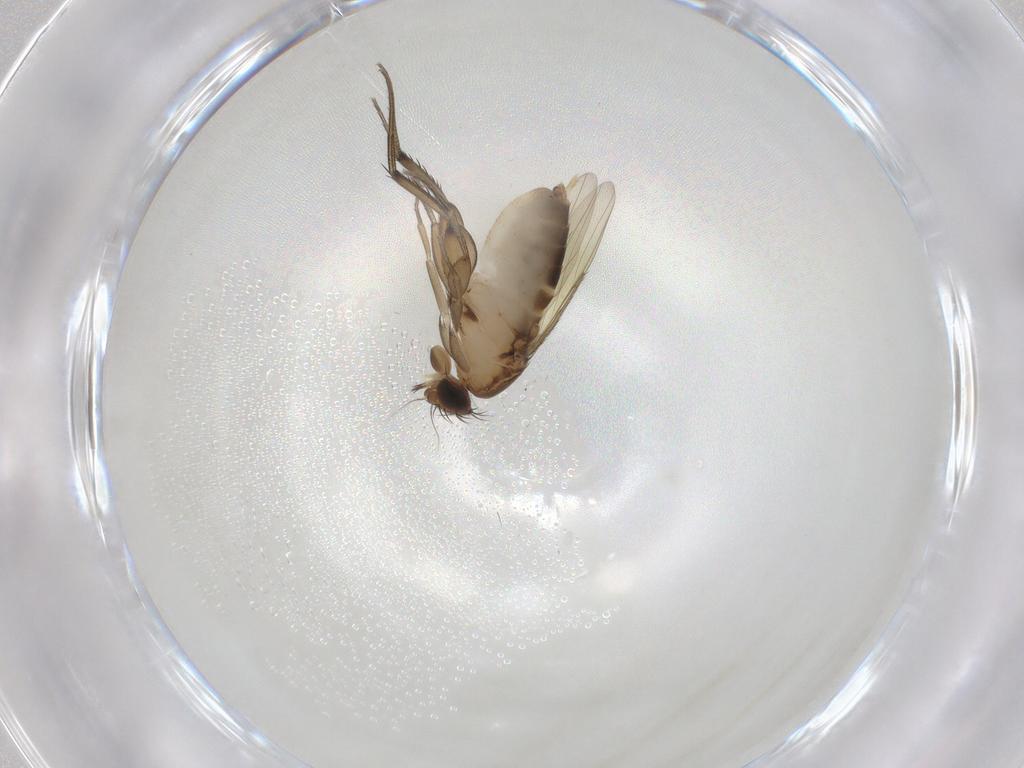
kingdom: Animalia
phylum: Arthropoda
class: Insecta
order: Diptera
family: Phoridae
